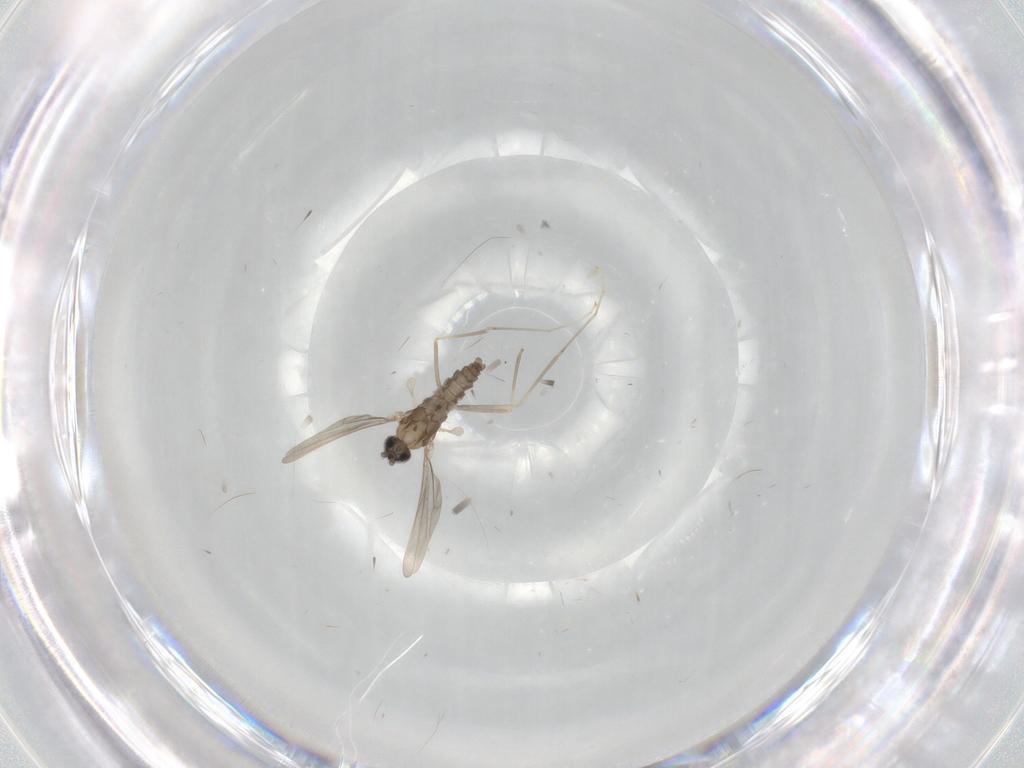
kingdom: Animalia
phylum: Arthropoda
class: Insecta
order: Diptera
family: Cecidomyiidae
